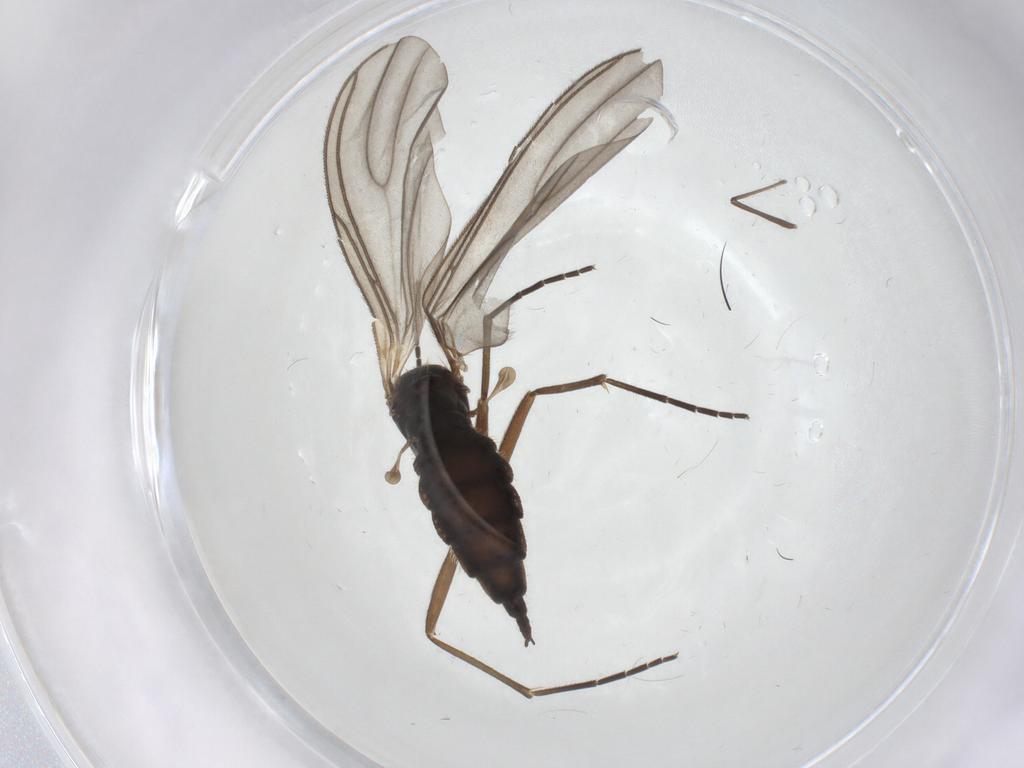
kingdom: Animalia
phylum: Arthropoda
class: Insecta
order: Diptera
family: Sciaridae
